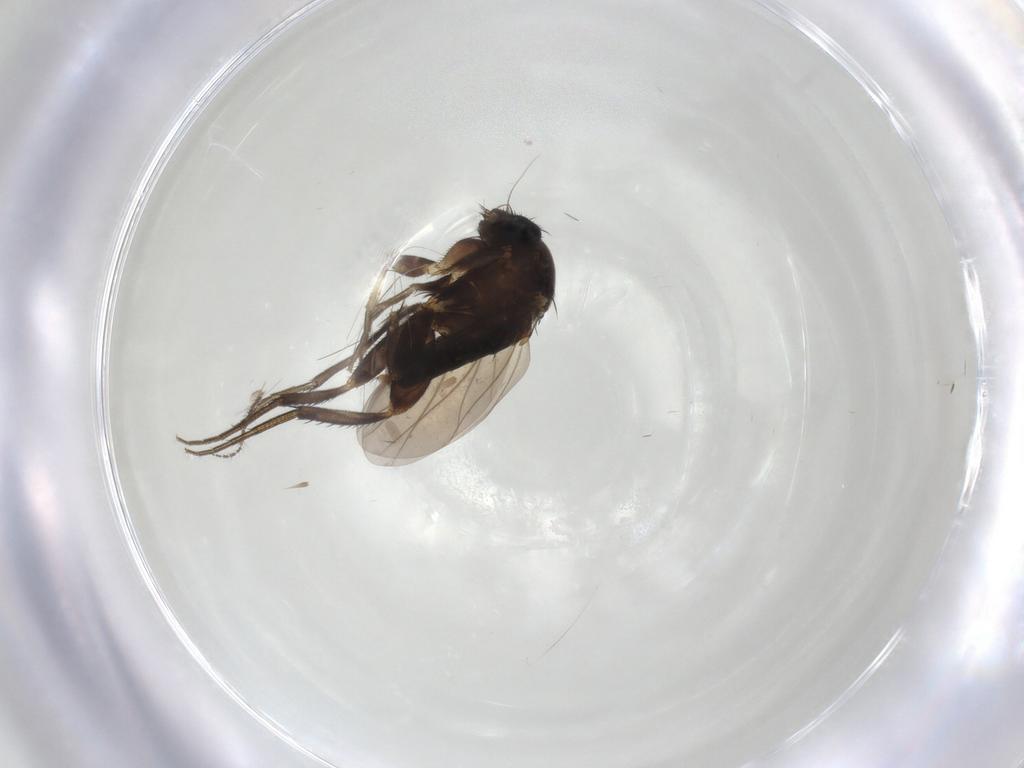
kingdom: Animalia
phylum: Arthropoda
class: Insecta
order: Diptera
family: Phoridae
